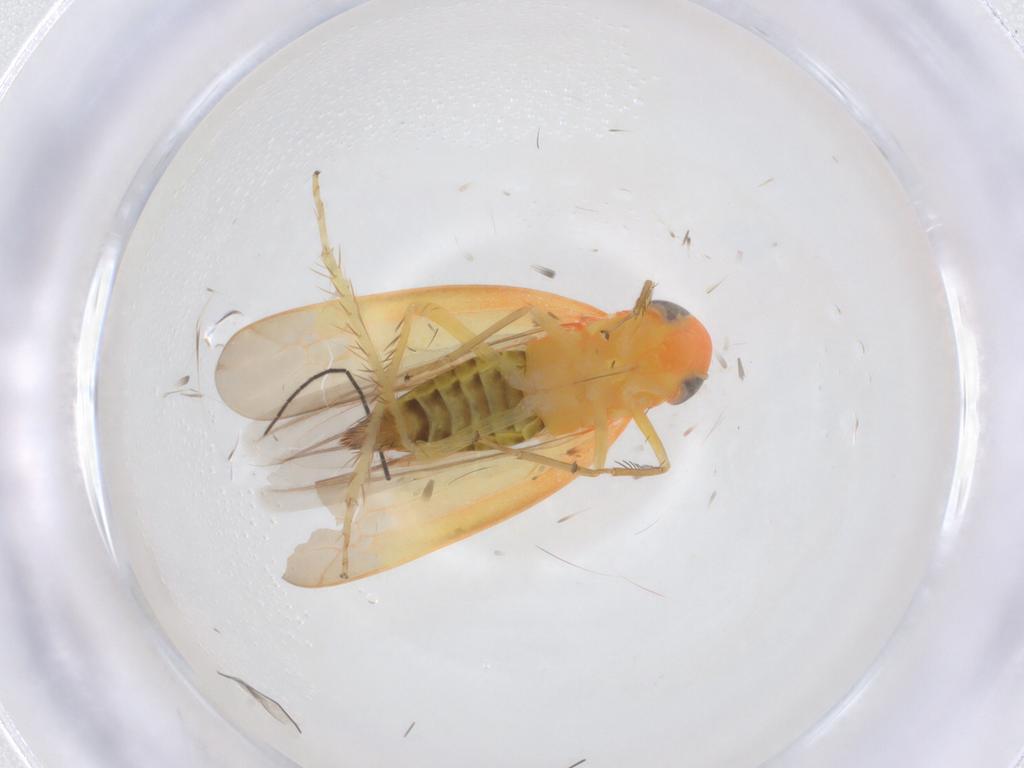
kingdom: Animalia
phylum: Arthropoda
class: Insecta
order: Hemiptera
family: Cicadellidae
